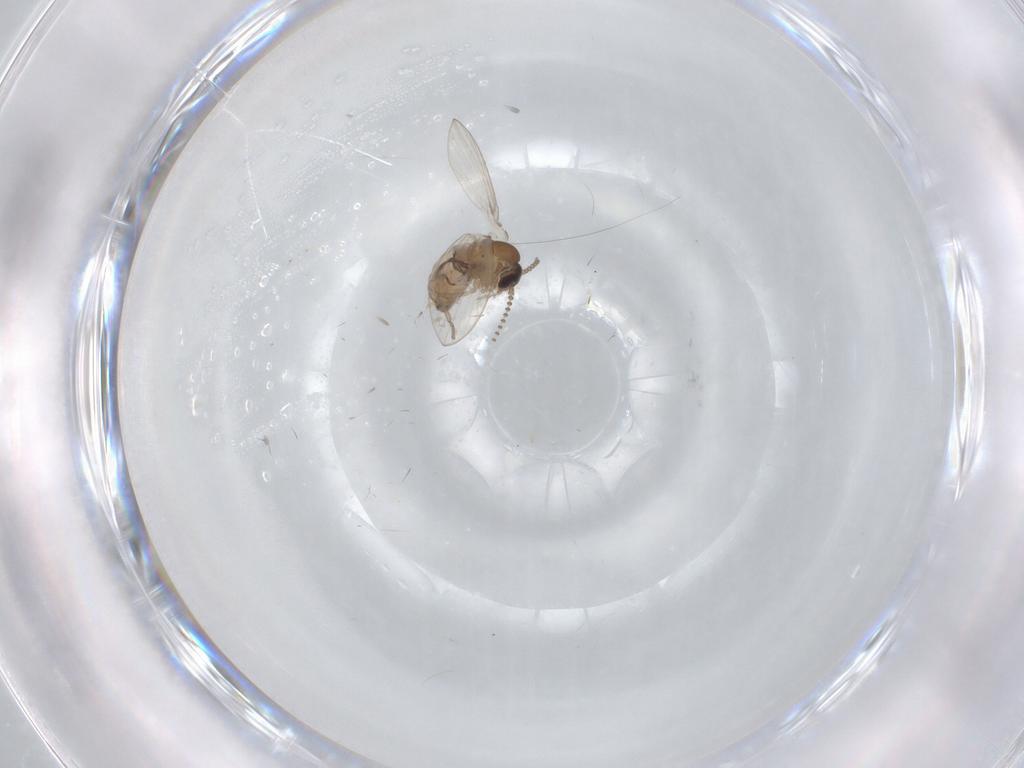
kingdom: Animalia
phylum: Arthropoda
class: Insecta
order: Diptera
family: Psychodidae
